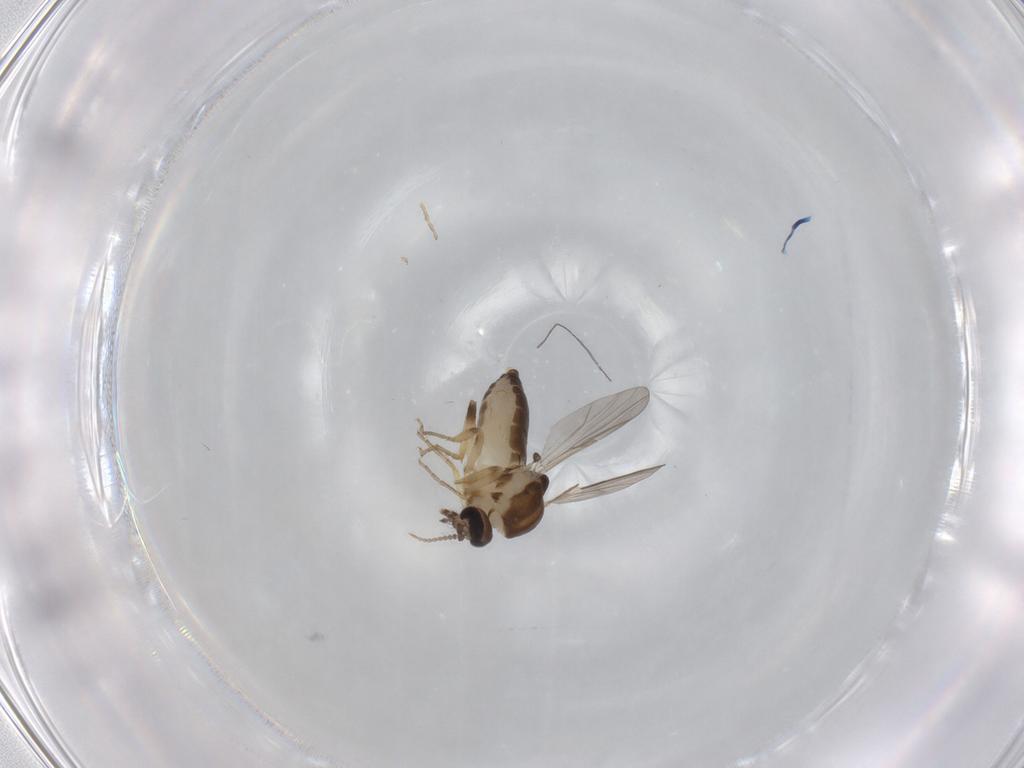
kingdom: Animalia
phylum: Arthropoda
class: Insecta
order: Diptera
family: Ceratopogonidae
